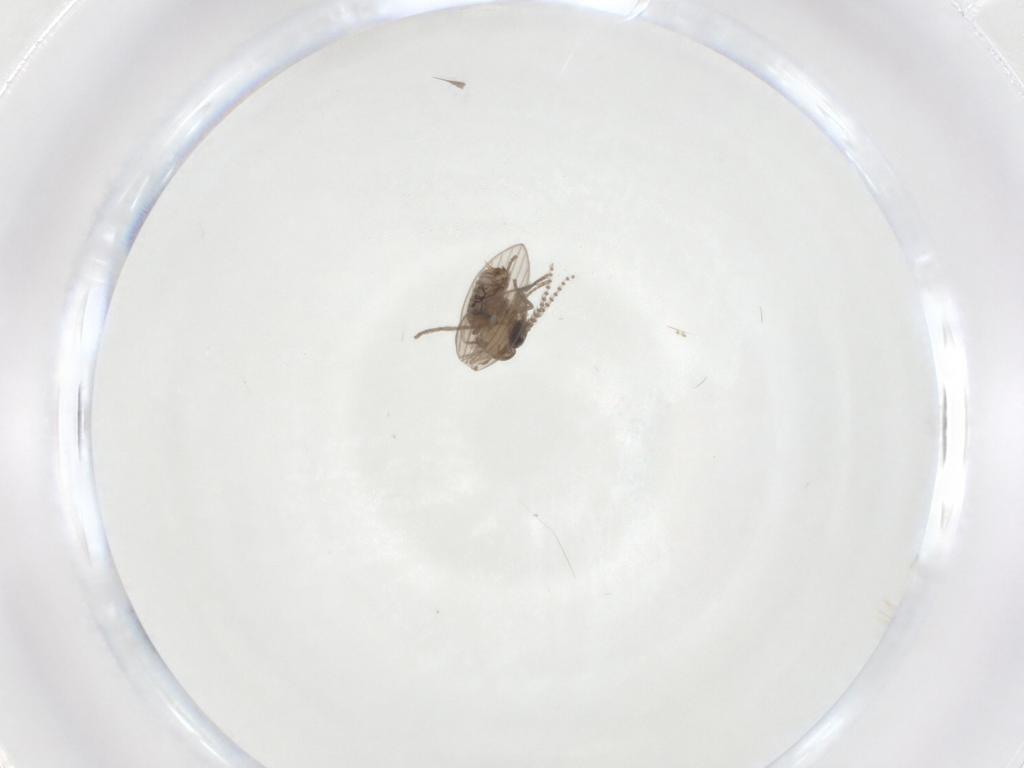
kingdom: Animalia
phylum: Arthropoda
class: Insecta
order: Diptera
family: Psychodidae
